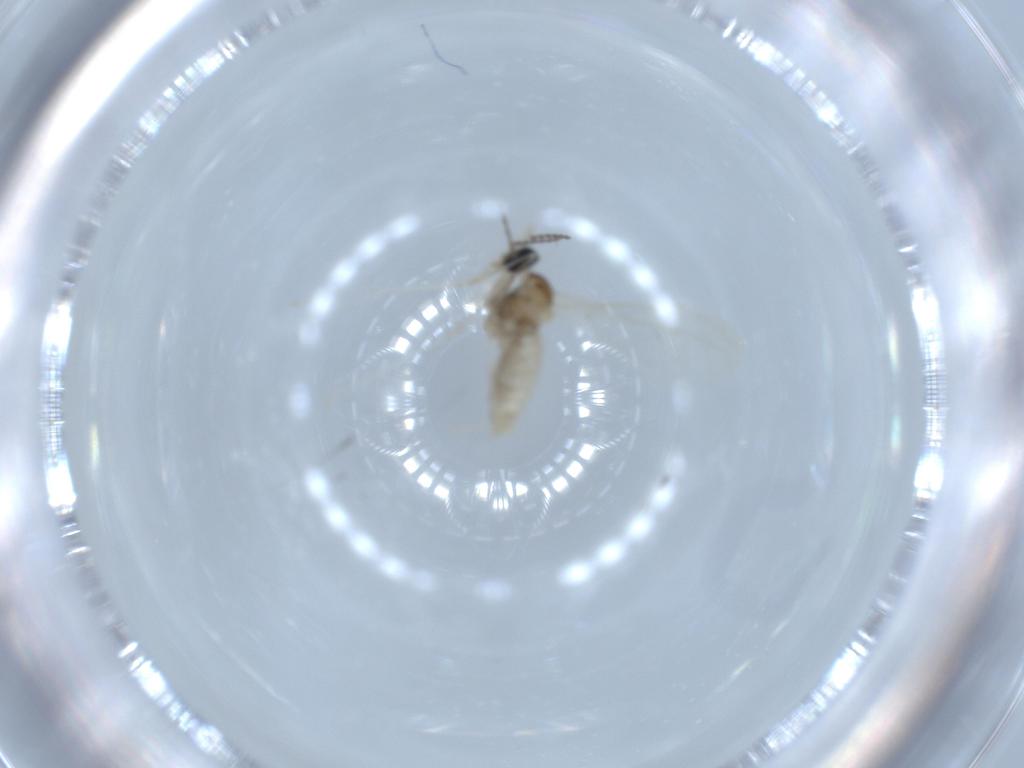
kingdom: Animalia
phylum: Arthropoda
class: Insecta
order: Diptera
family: Cecidomyiidae
